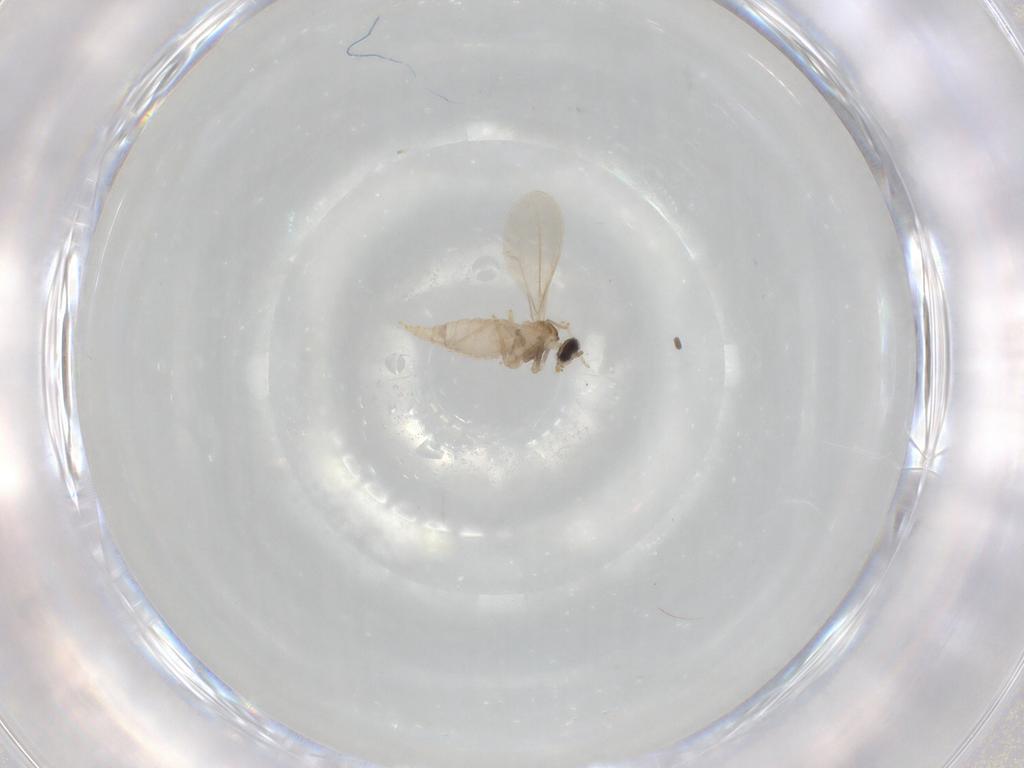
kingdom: Animalia
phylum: Arthropoda
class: Insecta
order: Diptera
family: Cecidomyiidae
